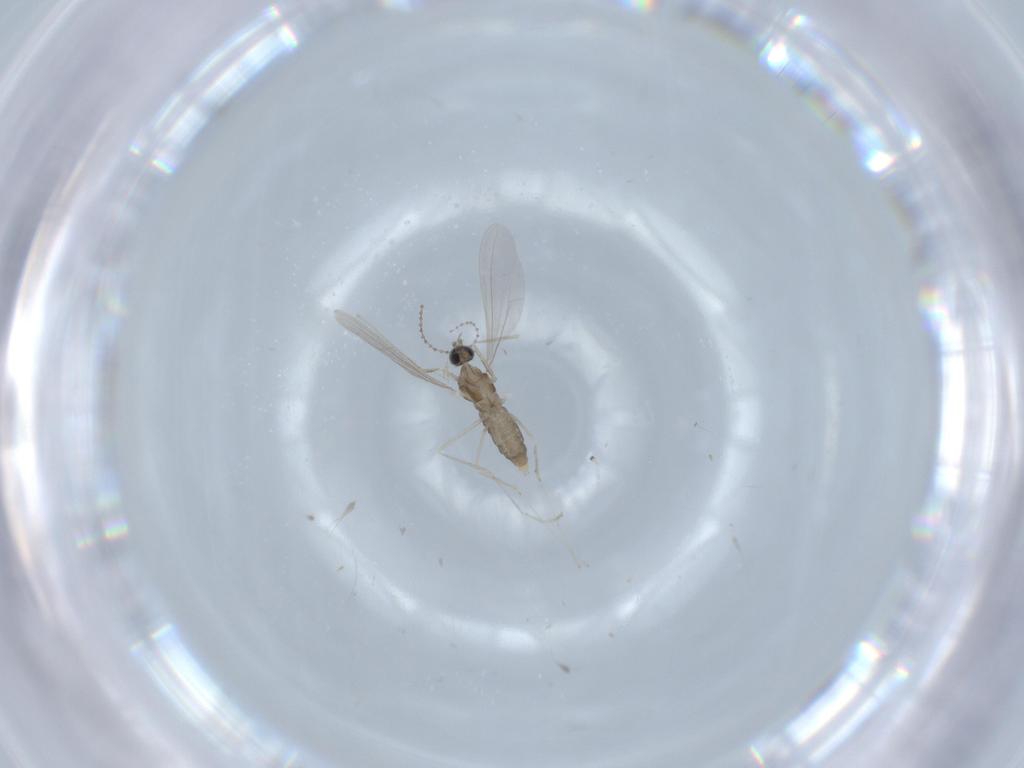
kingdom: Animalia
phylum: Arthropoda
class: Insecta
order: Diptera
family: Cecidomyiidae
